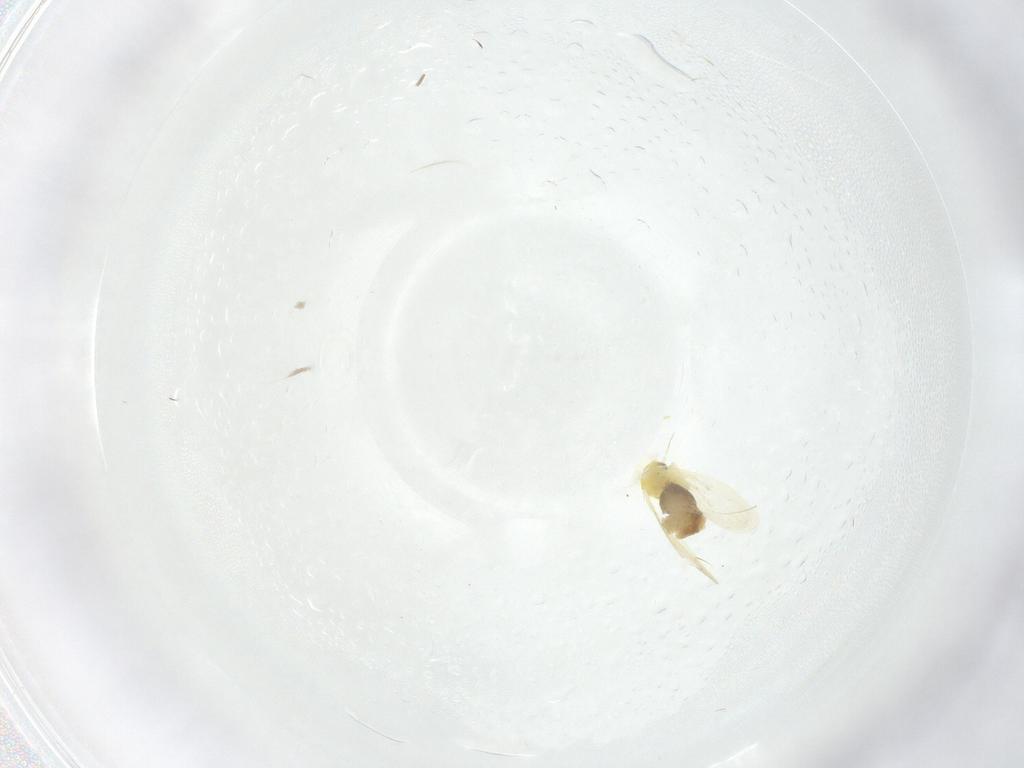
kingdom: Animalia
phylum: Arthropoda
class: Insecta
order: Hemiptera
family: Aleyrodidae
